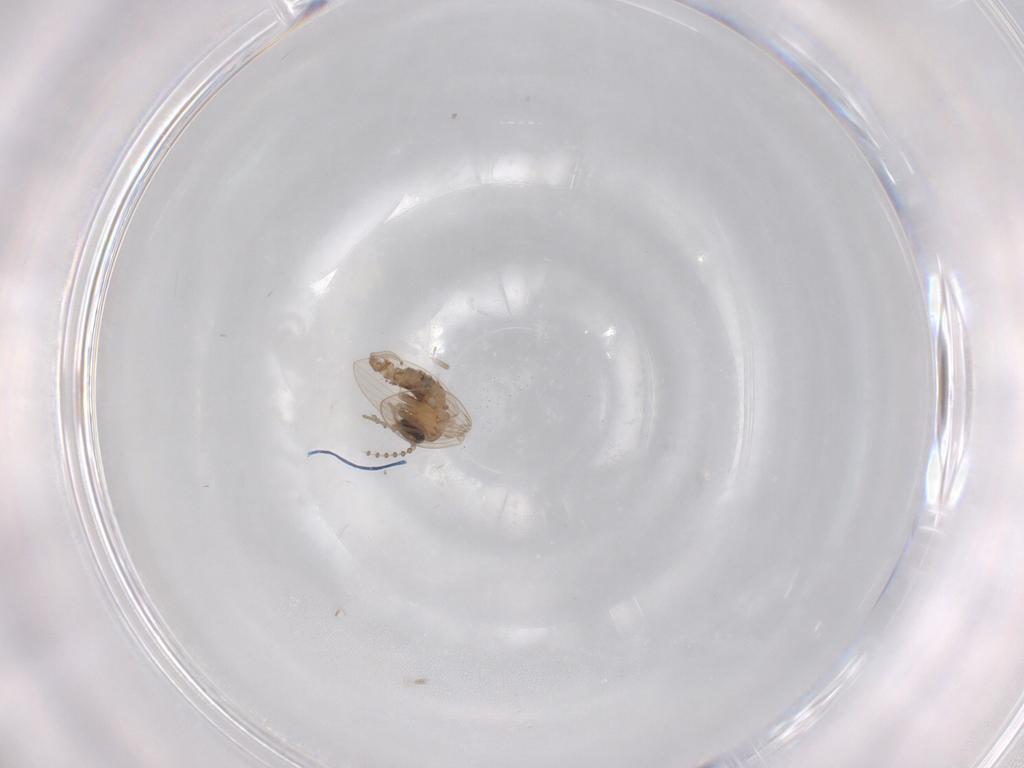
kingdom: Animalia
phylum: Arthropoda
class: Insecta
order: Diptera
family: Psychodidae
